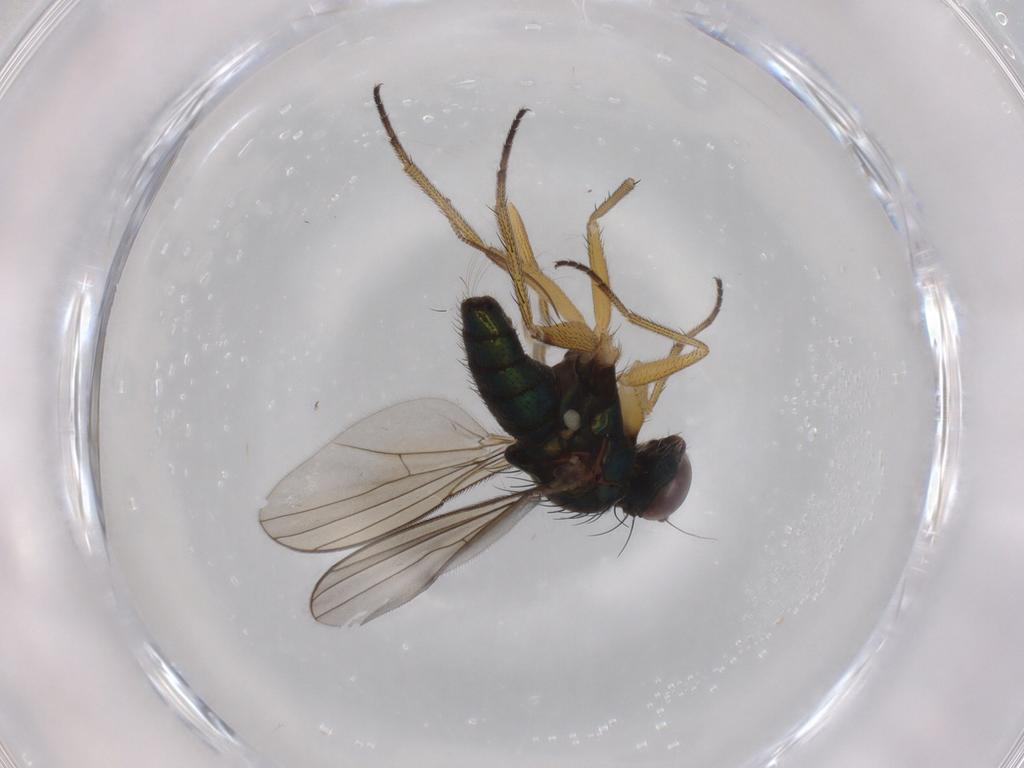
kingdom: Animalia
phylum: Arthropoda
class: Insecta
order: Diptera
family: Dolichopodidae
